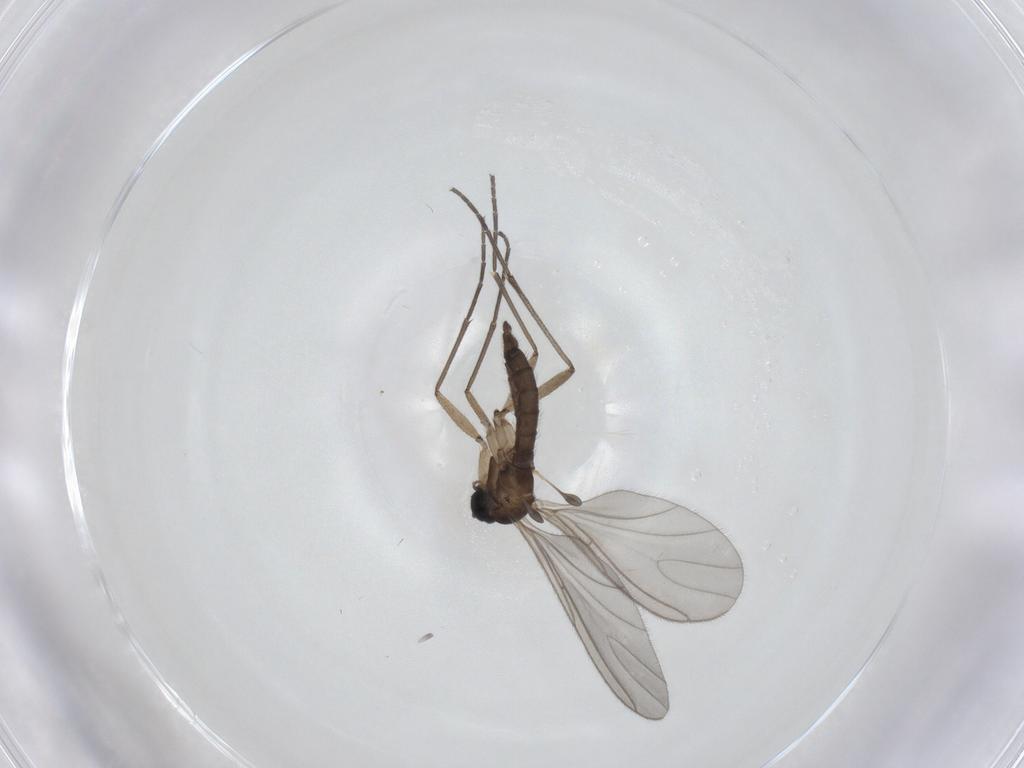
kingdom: Animalia
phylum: Arthropoda
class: Insecta
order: Diptera
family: Sciaridae
